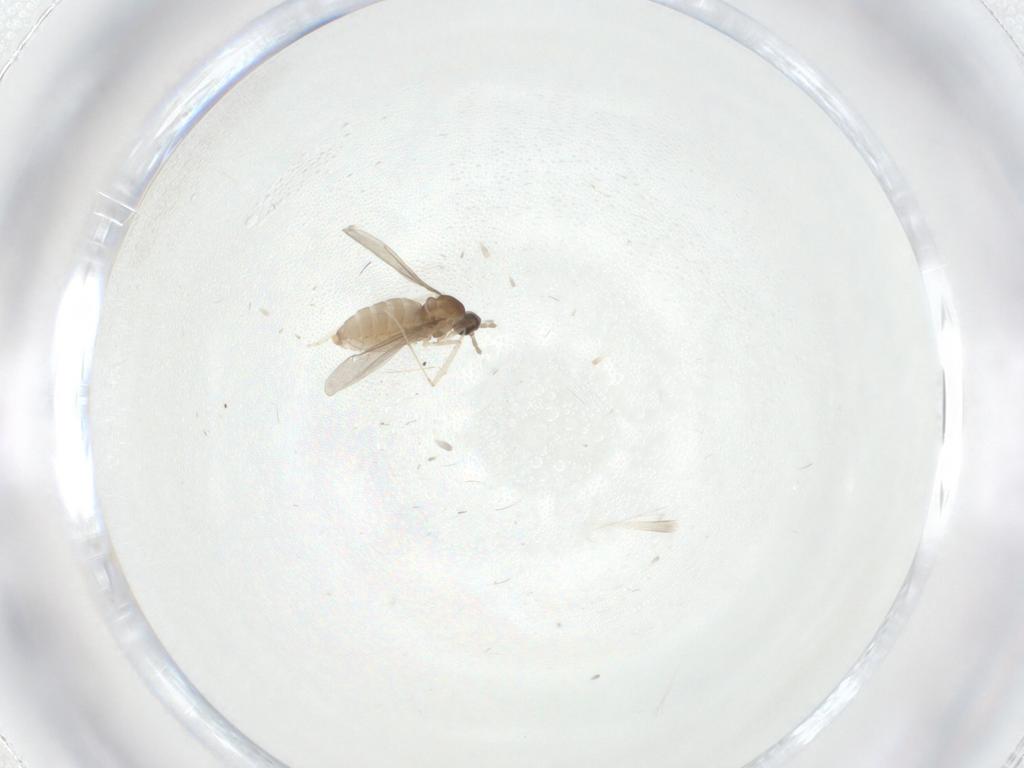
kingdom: Animalia
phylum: Arthropoda
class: Insecta
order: Diptera
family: Cecidomyiidae
